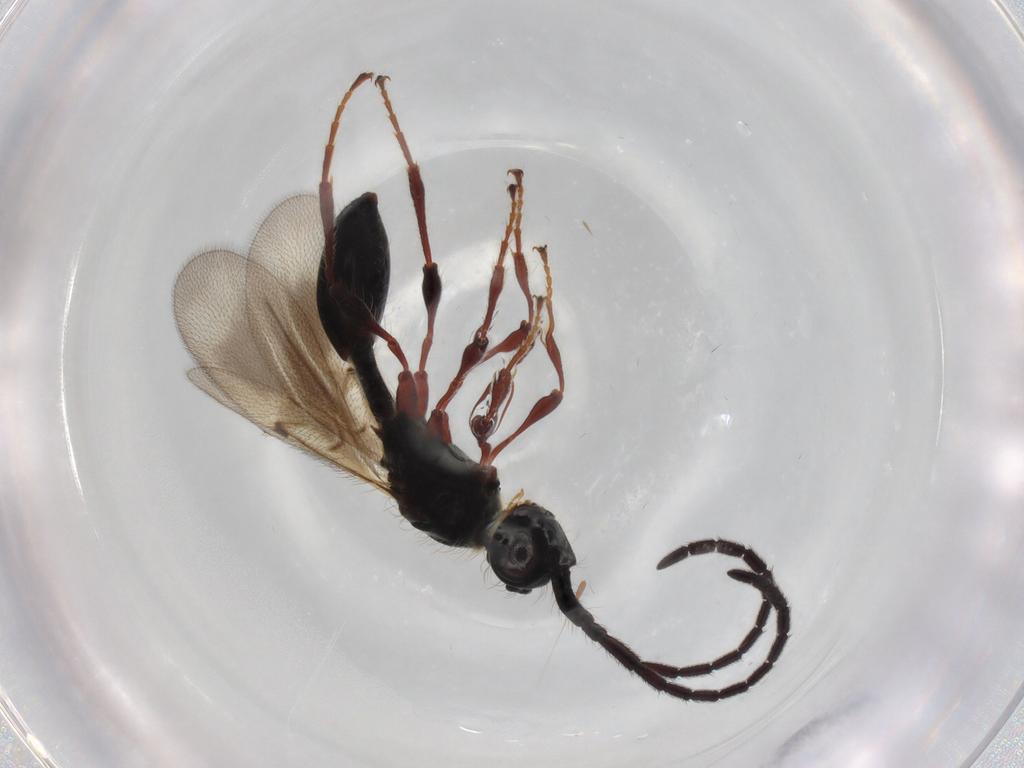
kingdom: Animalia
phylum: Arthropoda
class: Insecta
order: Hymenoptera
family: Diapriidae
